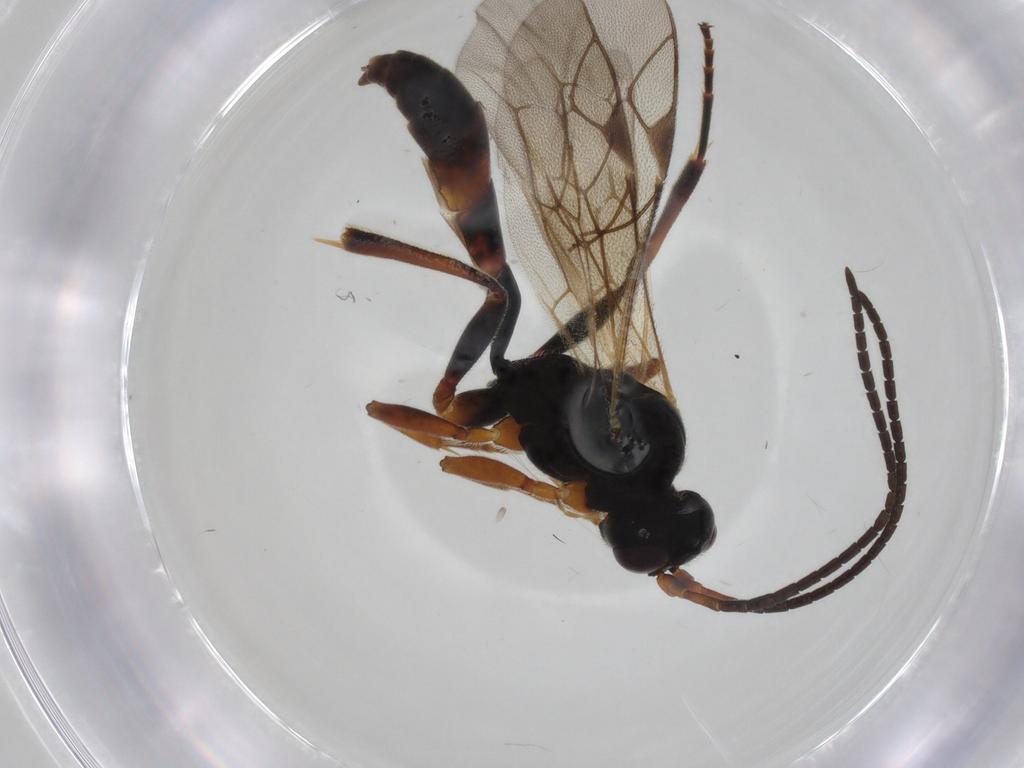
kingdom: Animalia
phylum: Arthropoda
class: Insecta
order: Hymenoptera
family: Ichneumonidae
